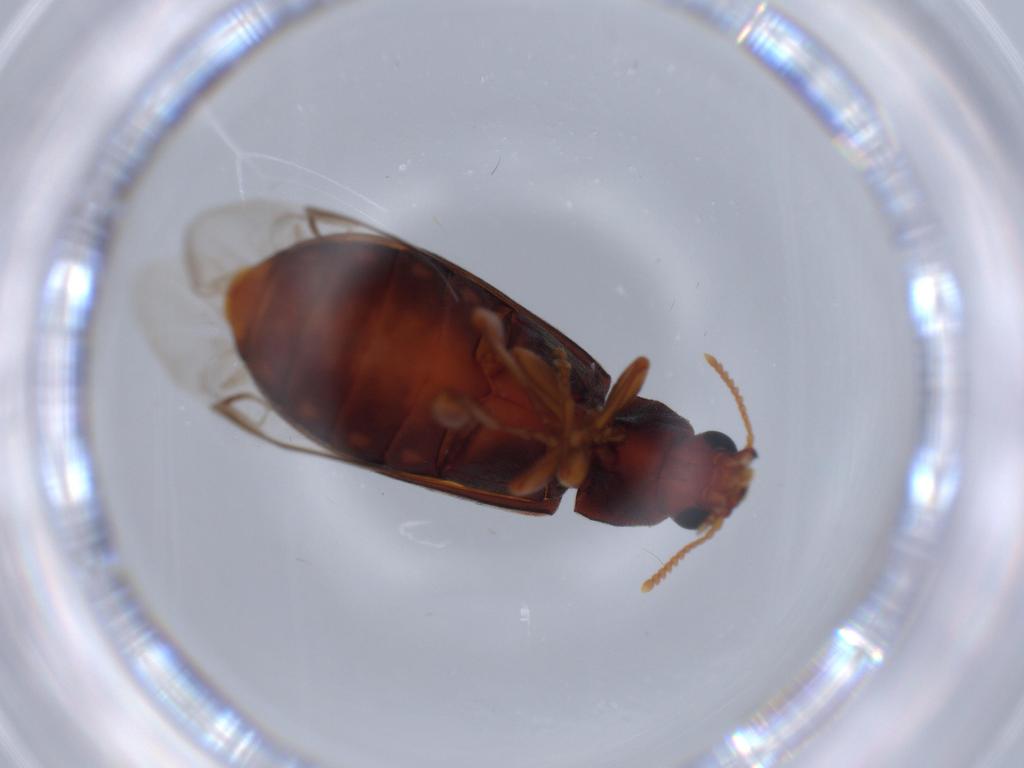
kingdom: Animalia
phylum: Arthropoda
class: Insecta
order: Coleoptera
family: Mycteridae
